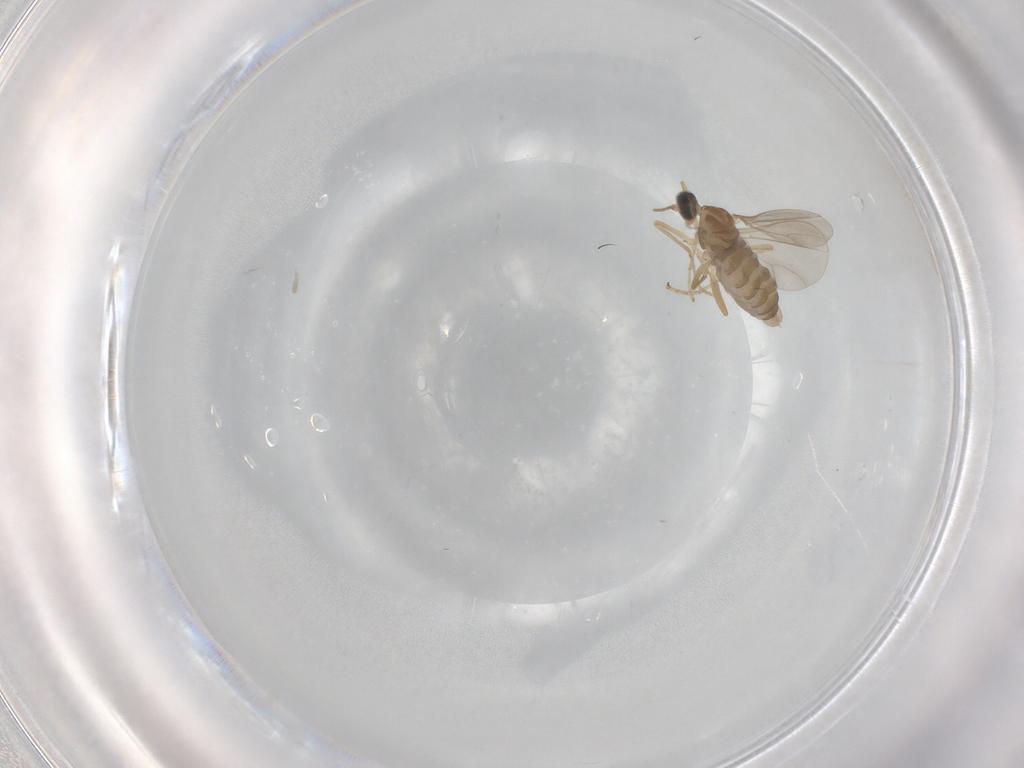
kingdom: Animalia
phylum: Arthropoda
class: Insecta
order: Diptera
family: Cecidomyiidae
